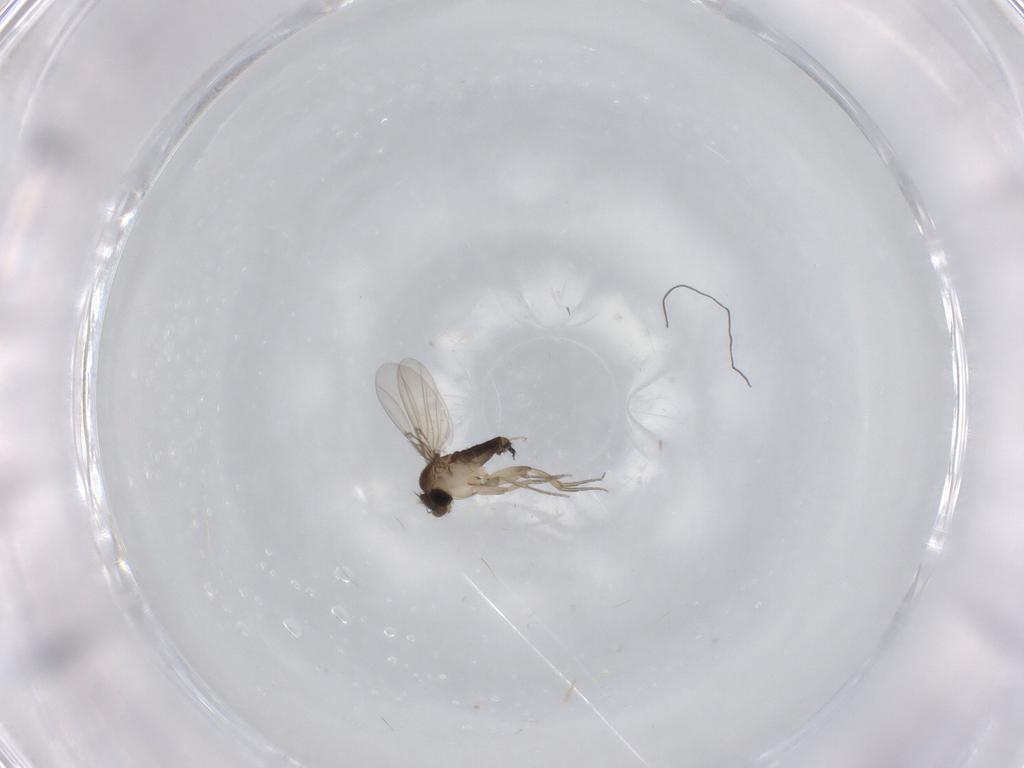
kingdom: Animalia
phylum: Arthropoda
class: Insecta
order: Diptera
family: Phoridae
